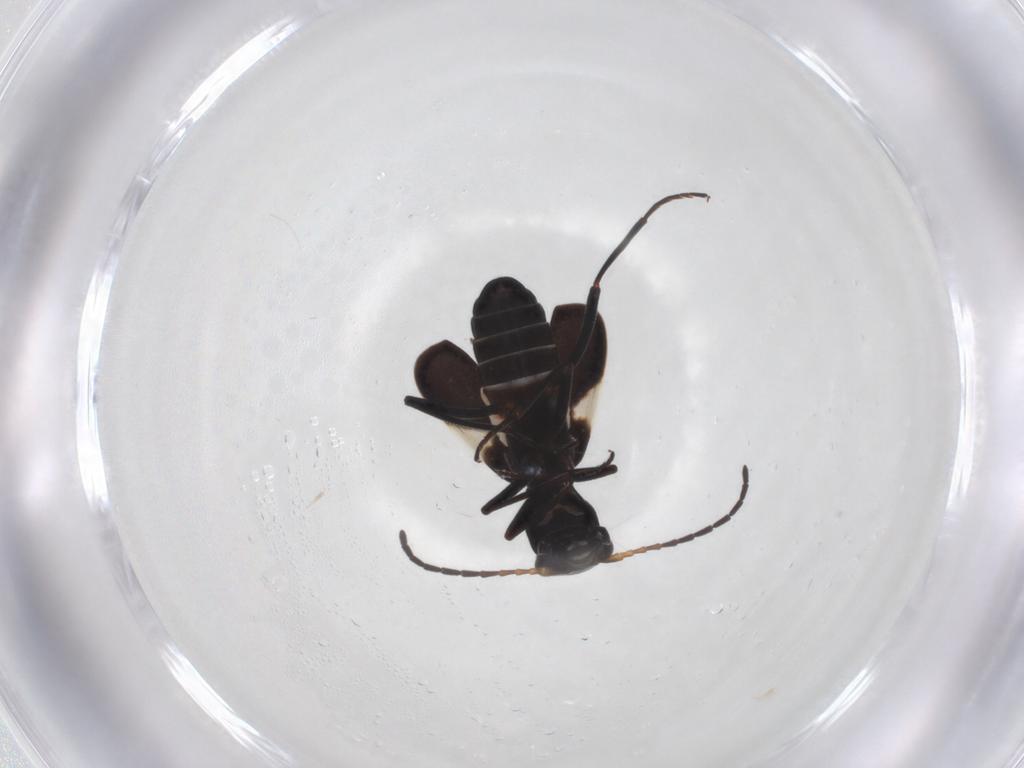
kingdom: Animalia
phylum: Arthropoda
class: Insecta
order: Coleoptera
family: Melyridae
